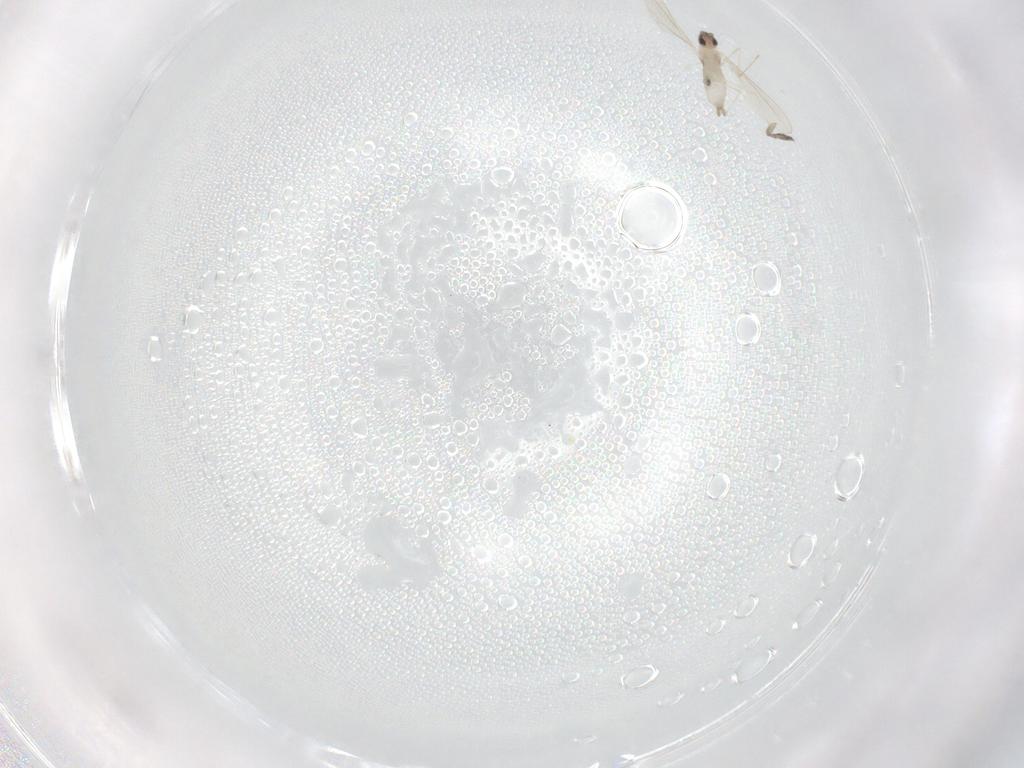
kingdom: Animalia
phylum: Arthropoda
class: Insecta
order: Diptera
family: Cecidomyiidae
